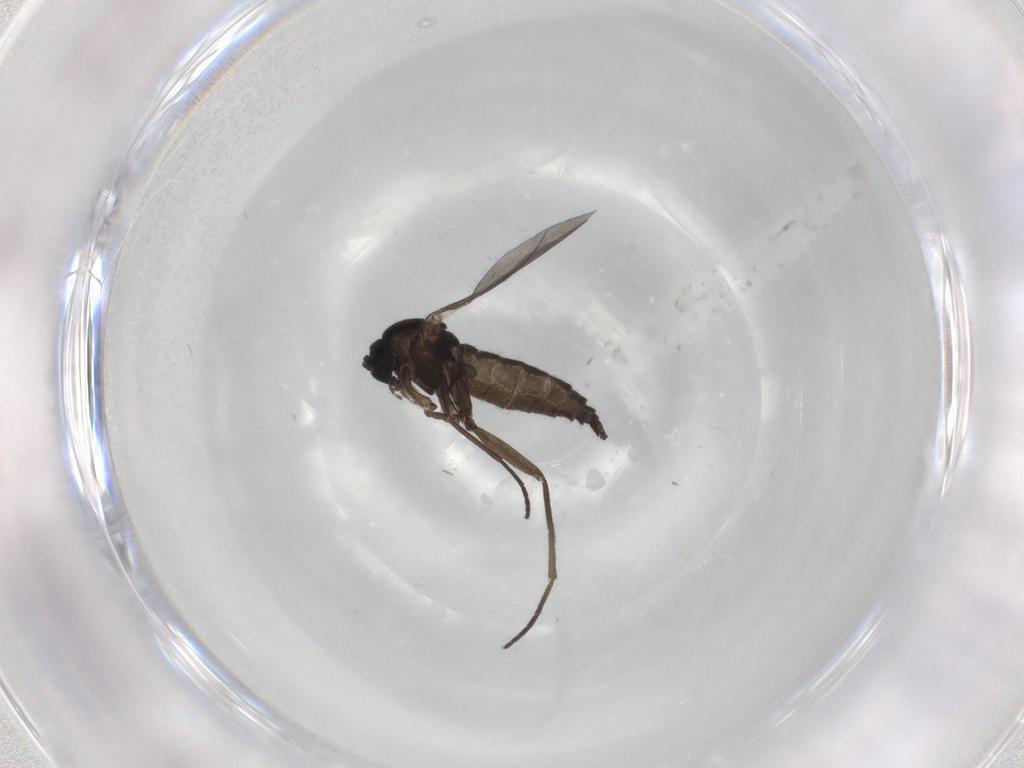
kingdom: Animalia
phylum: Arthropoda
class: Insecta
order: Diptera
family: Sciaridae
